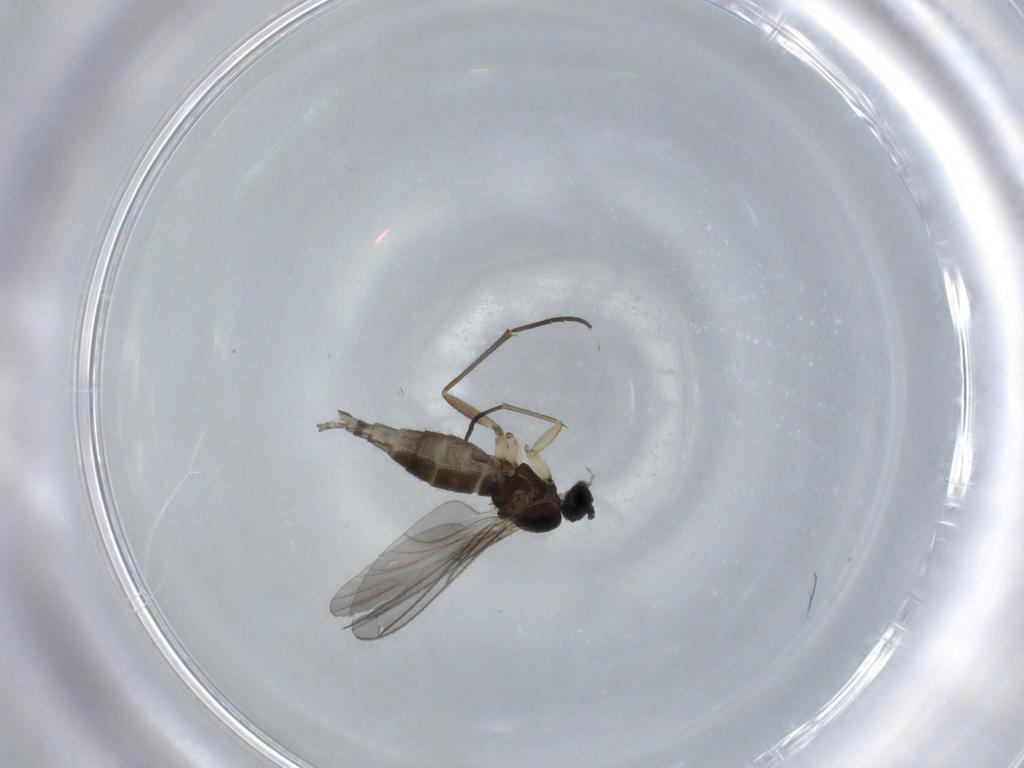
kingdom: Animalia
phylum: Arthropoda
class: Insecta
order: Diptera
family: Sciaridae
